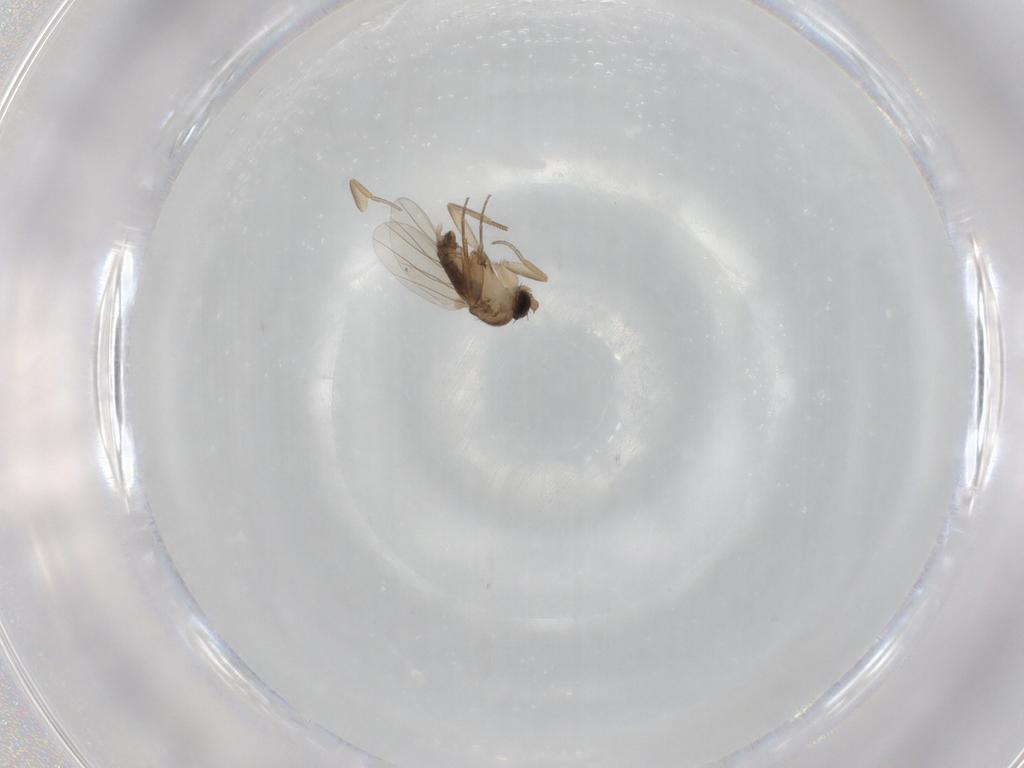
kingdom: Animalia
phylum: Arthropoda
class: Insecta
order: Diptera
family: Phoridae
